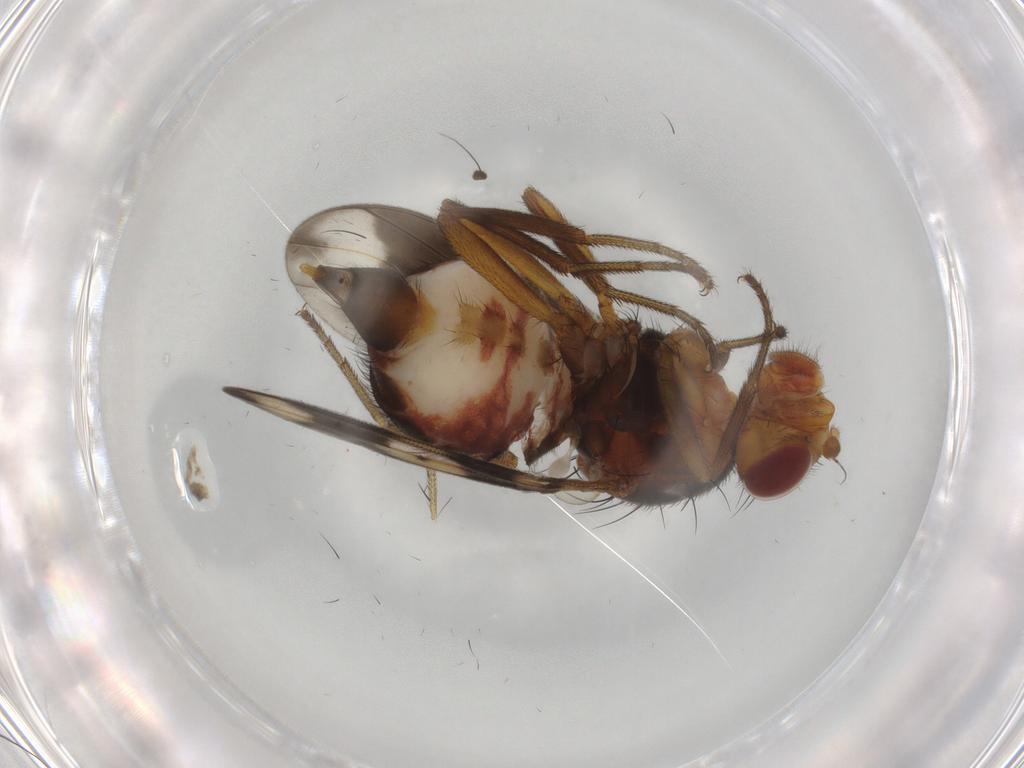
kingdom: Animalia
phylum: Arthropoda
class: Insecta
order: Diptera
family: Richardiidae
